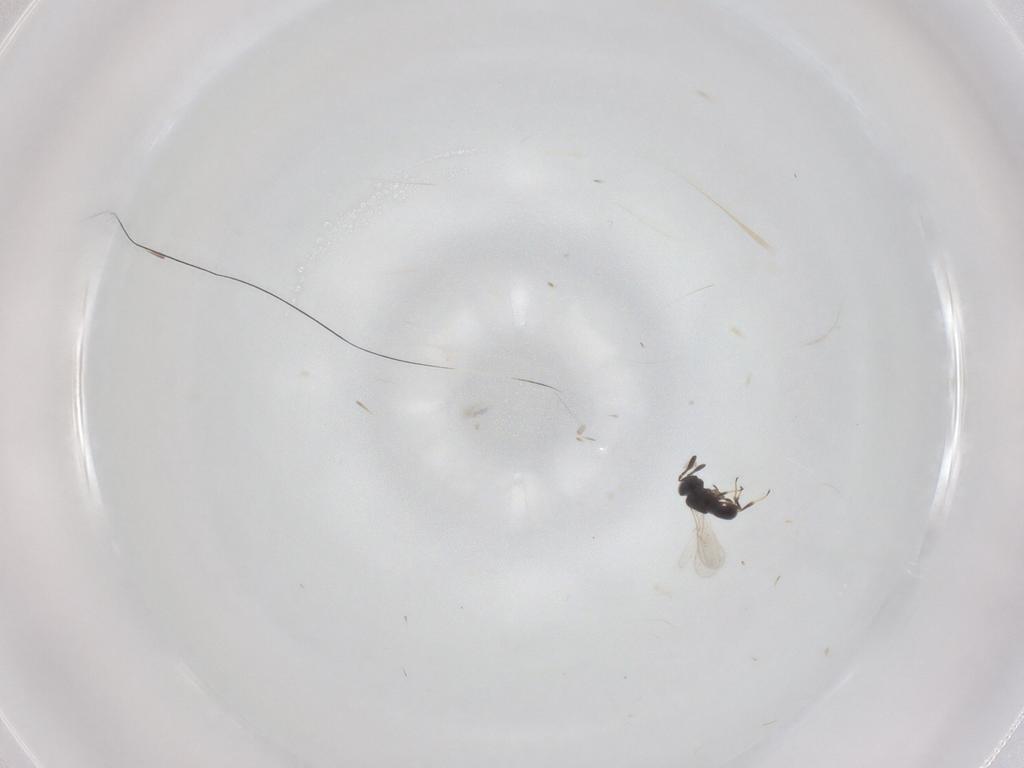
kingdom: Animalia
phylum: Arthropoda
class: Insecta
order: Hymenoptera
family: Scelionidae
